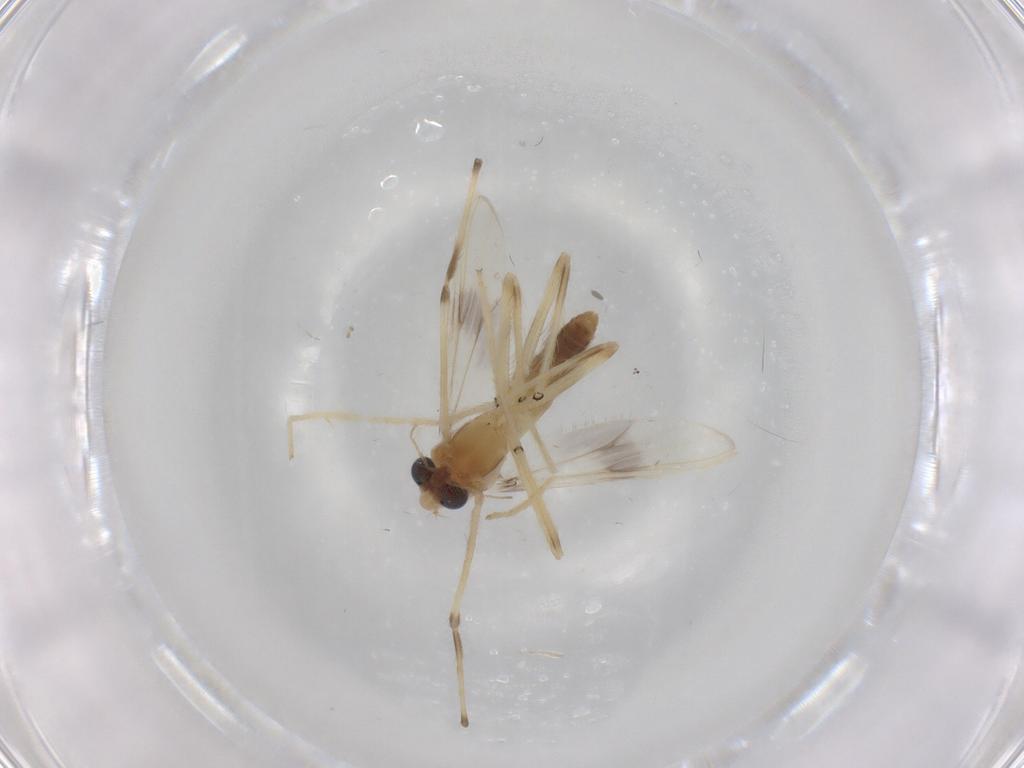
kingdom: Animalia
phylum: Arthropoda
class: Insecta
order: Diptera
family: Chironomidae
